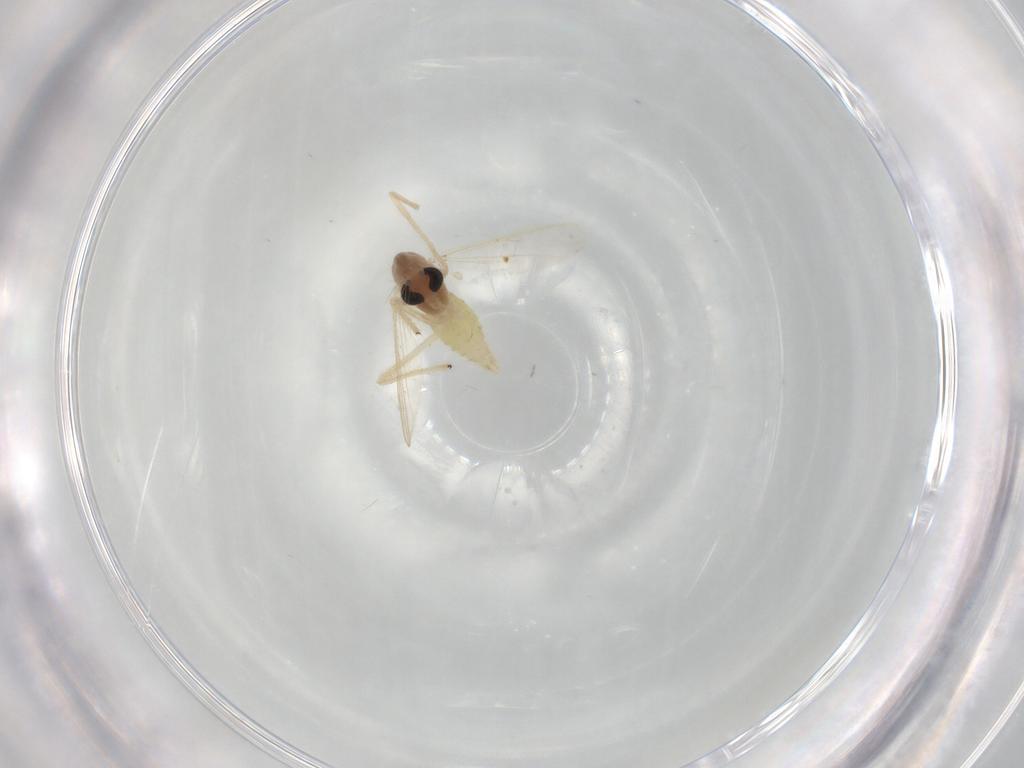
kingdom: Animalia
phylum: Arthropoda
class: Insecta
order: Diptera
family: Chironomidae
